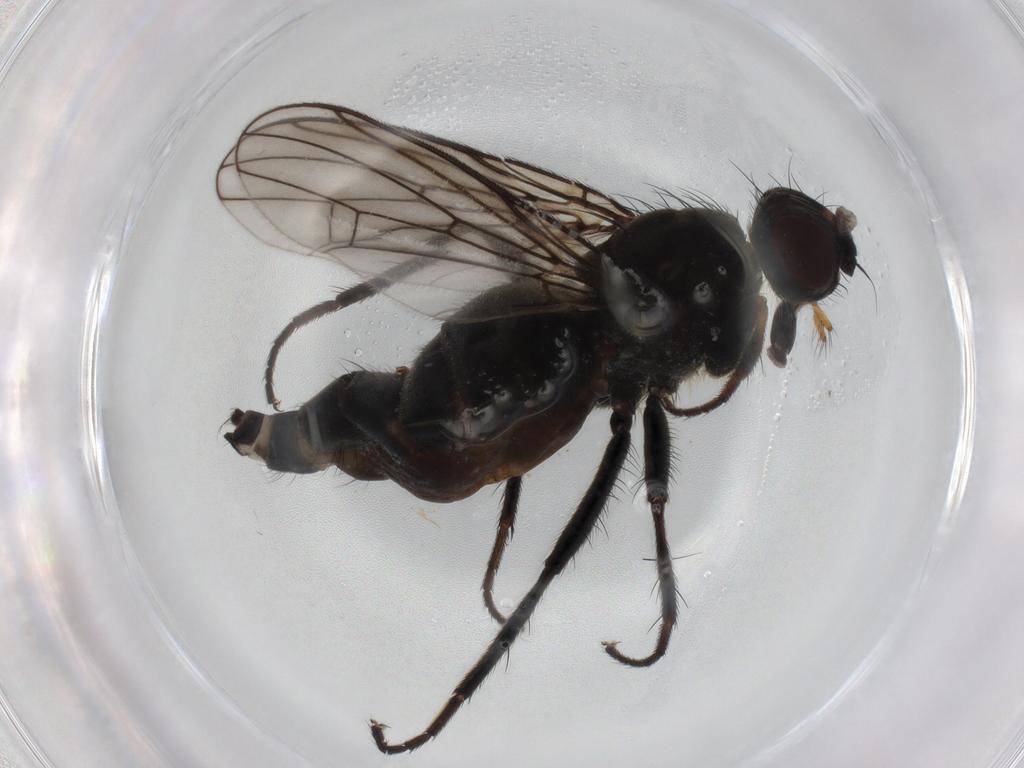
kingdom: Animalia
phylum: Arthropoda
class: Insecta
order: Diptera
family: Scathophagidae
